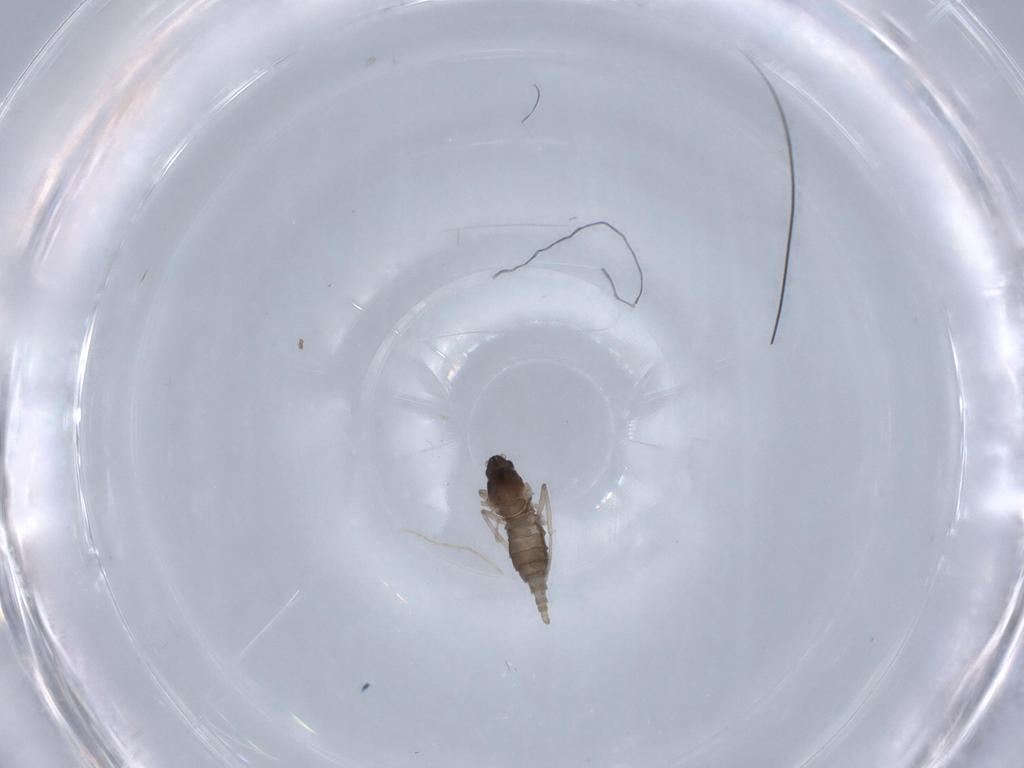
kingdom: Animalia
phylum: Arthropoda
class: Insecta
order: Diptera
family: Cecidomyiidae
